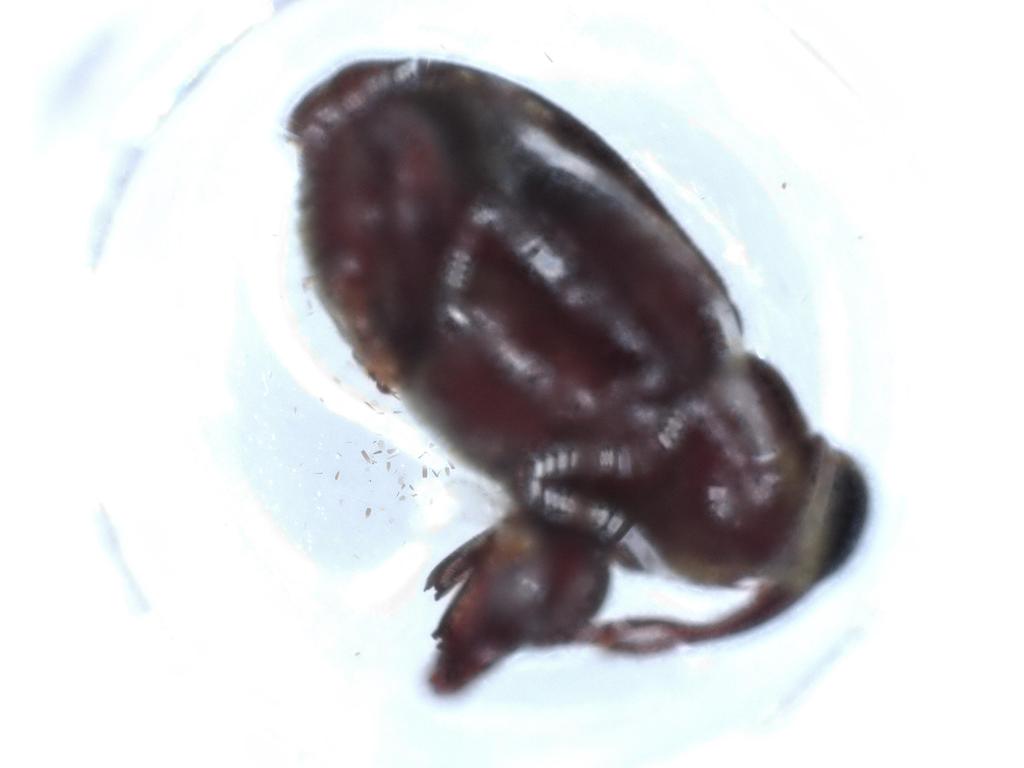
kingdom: Animalia
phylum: Arthropoda
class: Insecta
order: Coleoptera
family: Curculionidae
